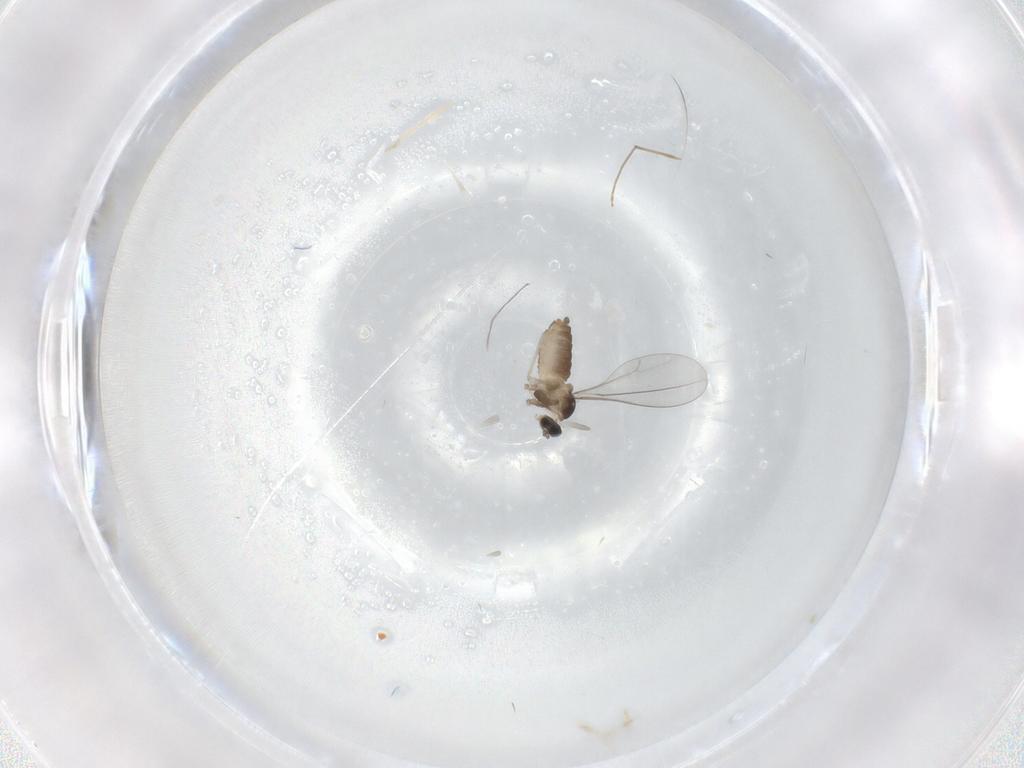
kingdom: Animalia
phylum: Arthropoda
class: Insecta
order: Diptera
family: Chironomidae
